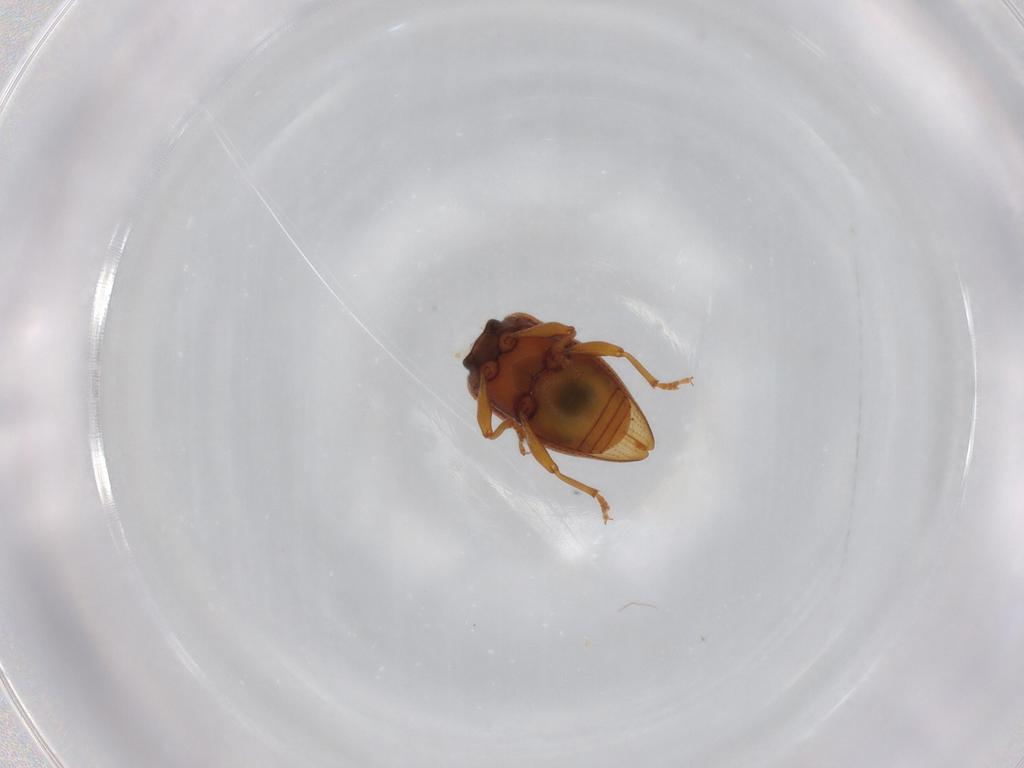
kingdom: Animalia
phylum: Arthropoda
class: Insecta
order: Coleoptera
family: Curculionidae
